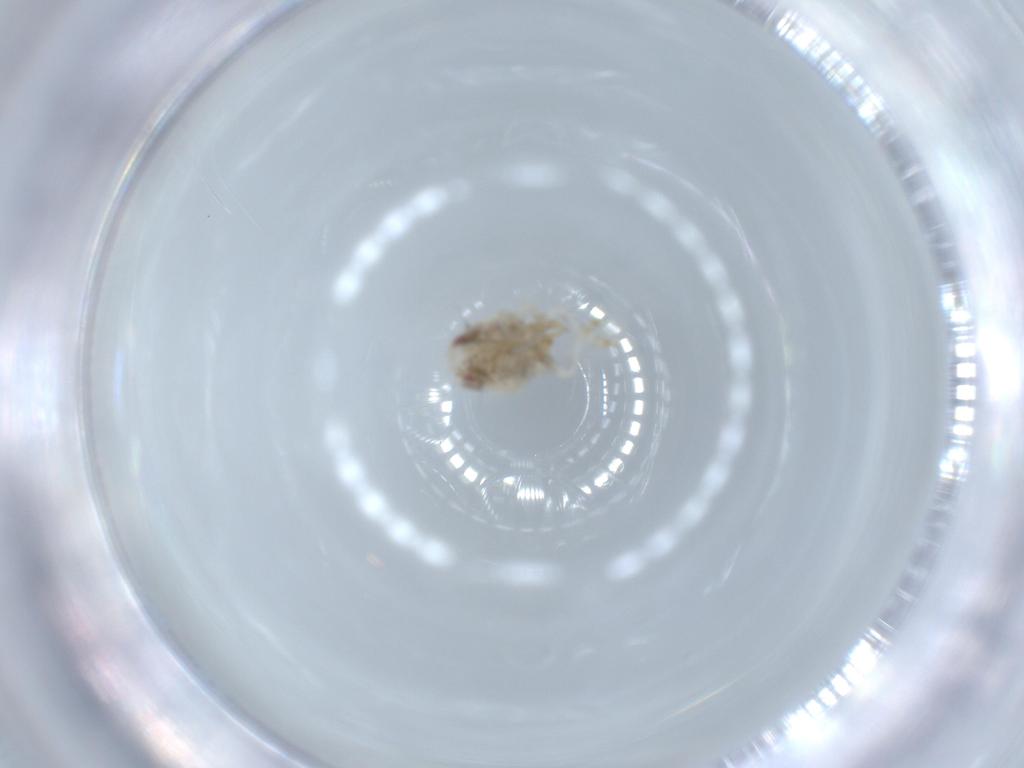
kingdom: Animalia
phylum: Arthropoda
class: Insecta
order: Hemiptera
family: Acanaloniidae
